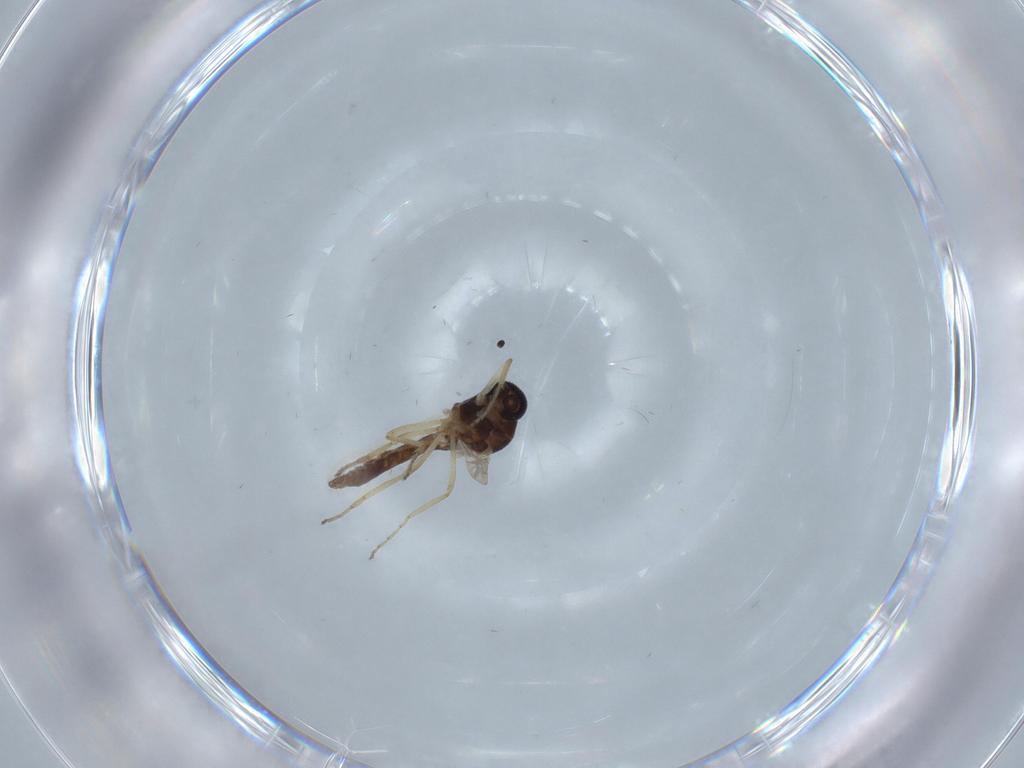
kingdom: Animalia
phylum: Arthropoda
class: Insecta
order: Diptera
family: Ceratopogonidae
